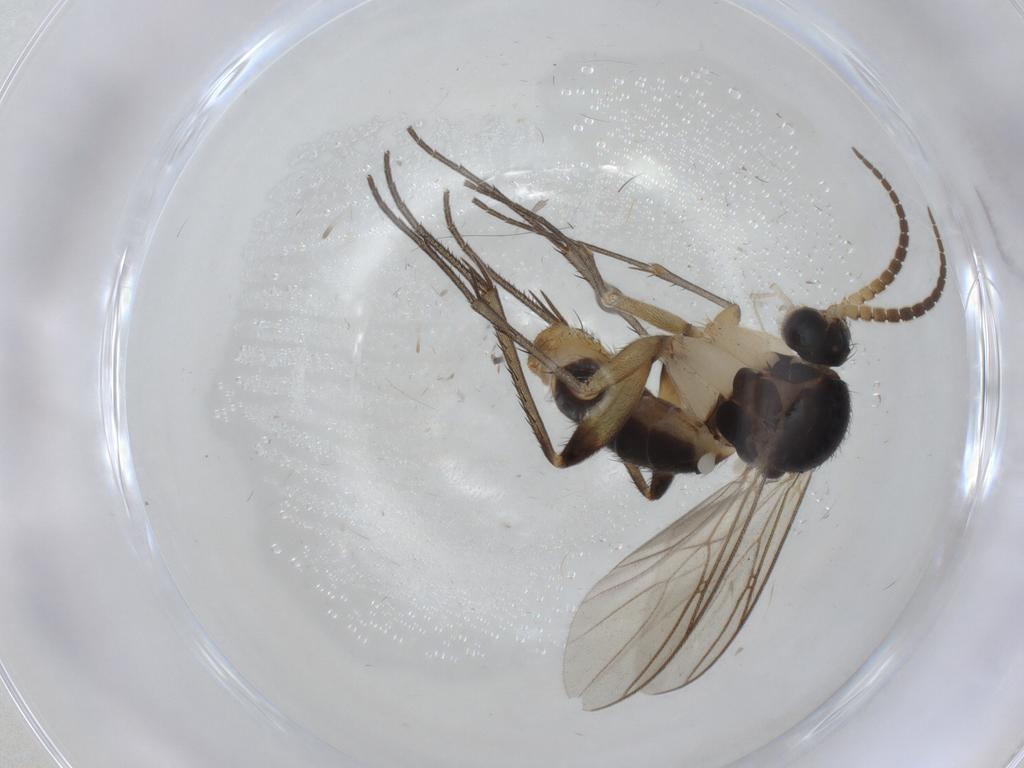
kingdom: Animalia
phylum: Arthropoda
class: Insecta
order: Diptera
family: Mycetophilidae
